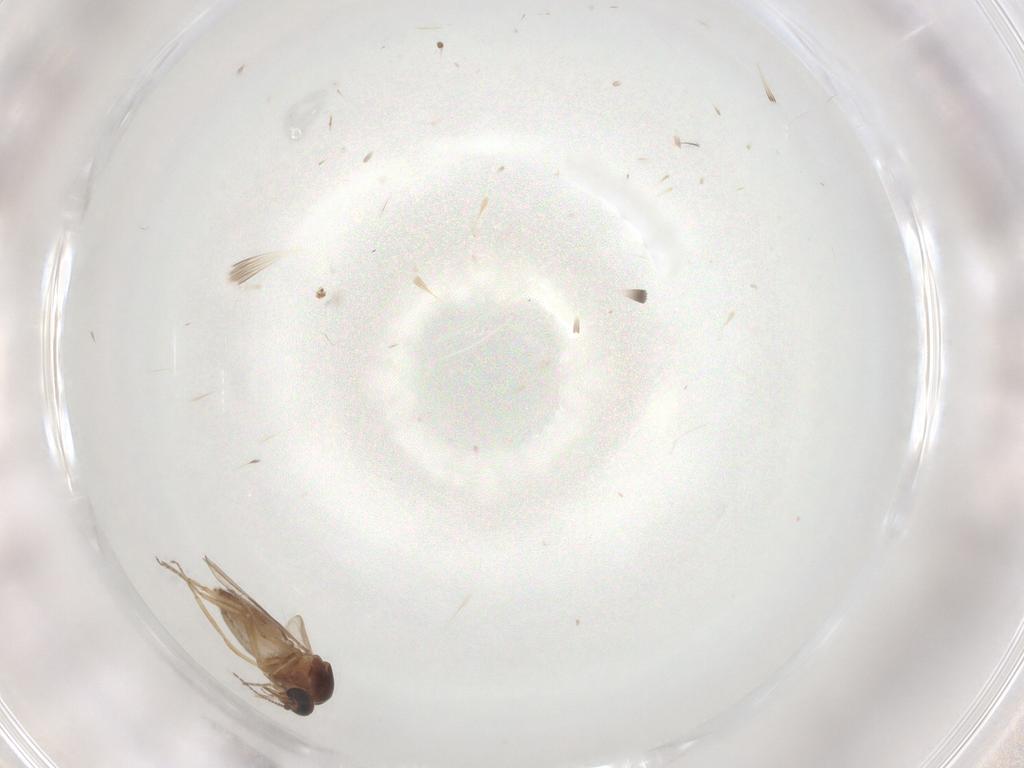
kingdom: Animalia
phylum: Arthropoda
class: Insecta
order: Diptera
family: Ceratopogonidae
